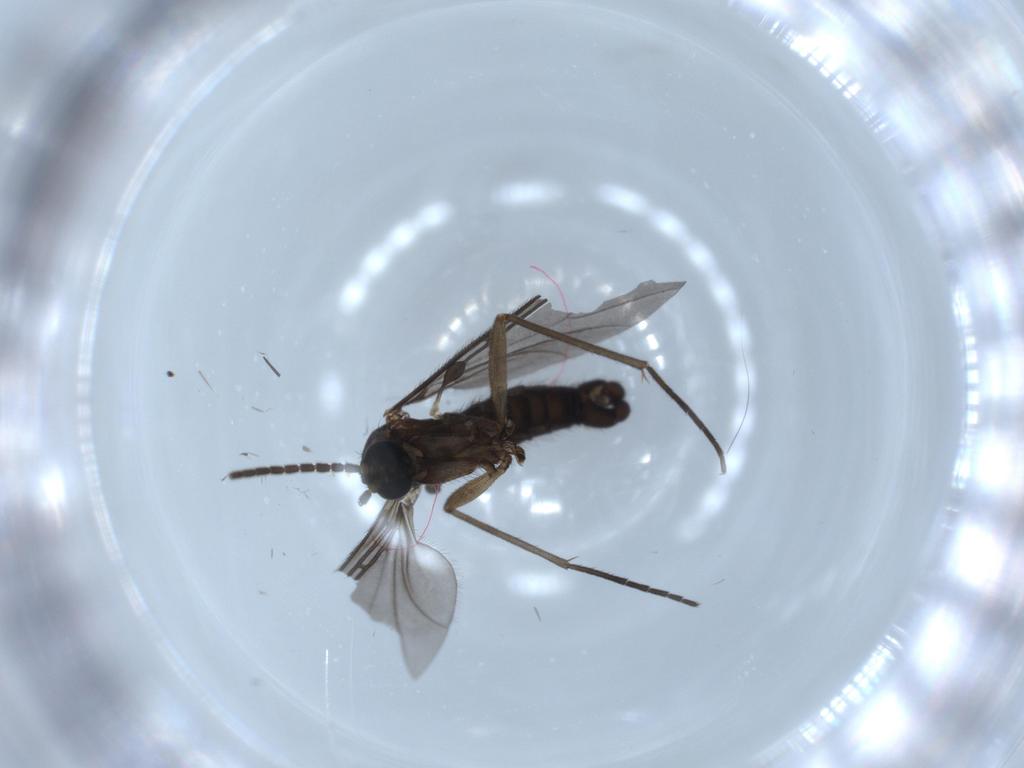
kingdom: Animalia
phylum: Arthropoda
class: Insecta
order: Diptera
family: Sciaridae
